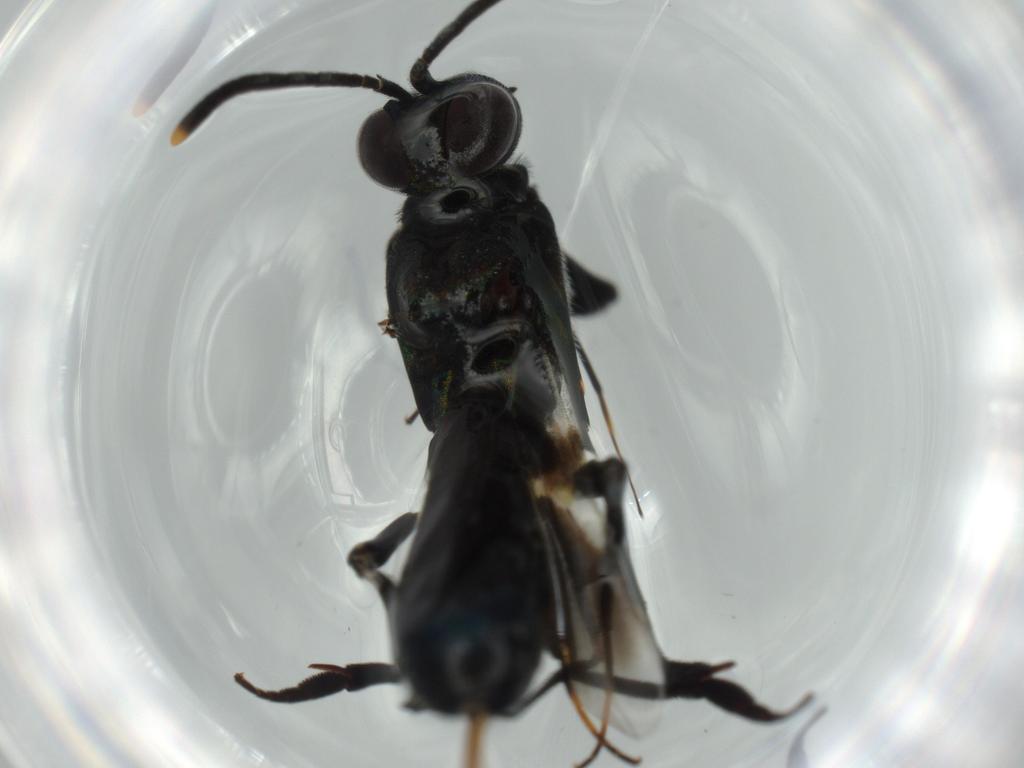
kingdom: Animalia
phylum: Arthropoda
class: Insecta
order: Hymenoptera
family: Eupelmidae
